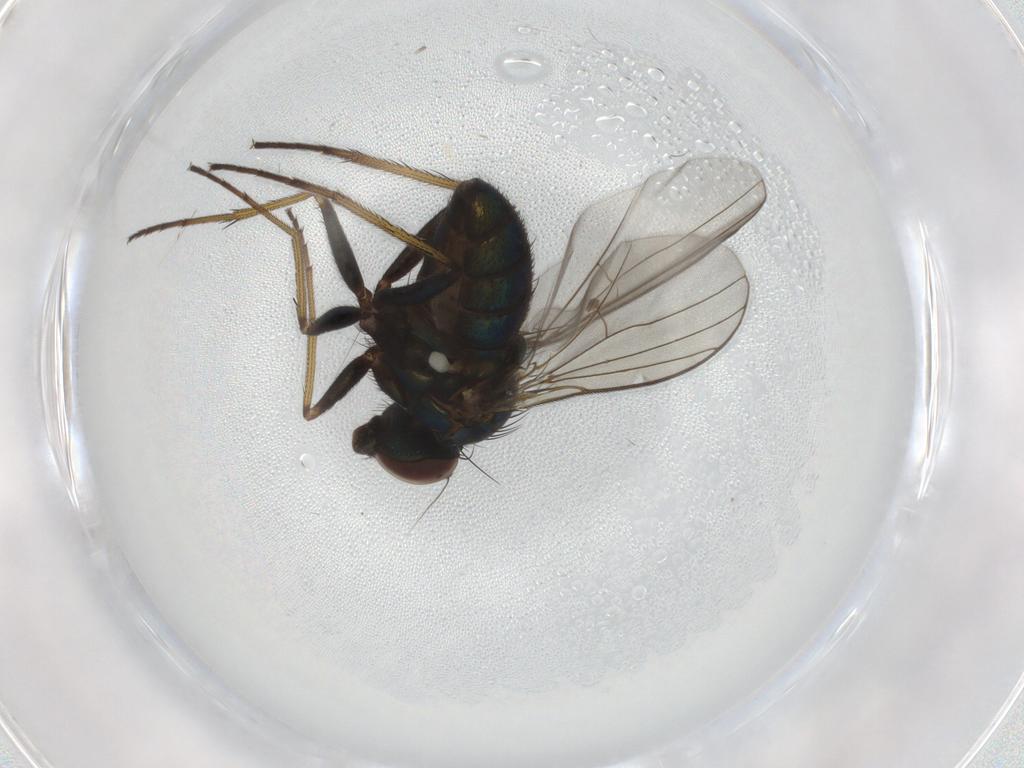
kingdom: Animalia
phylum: Arthropoda
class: Insecta
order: Diptera
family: Dolichopodidae
